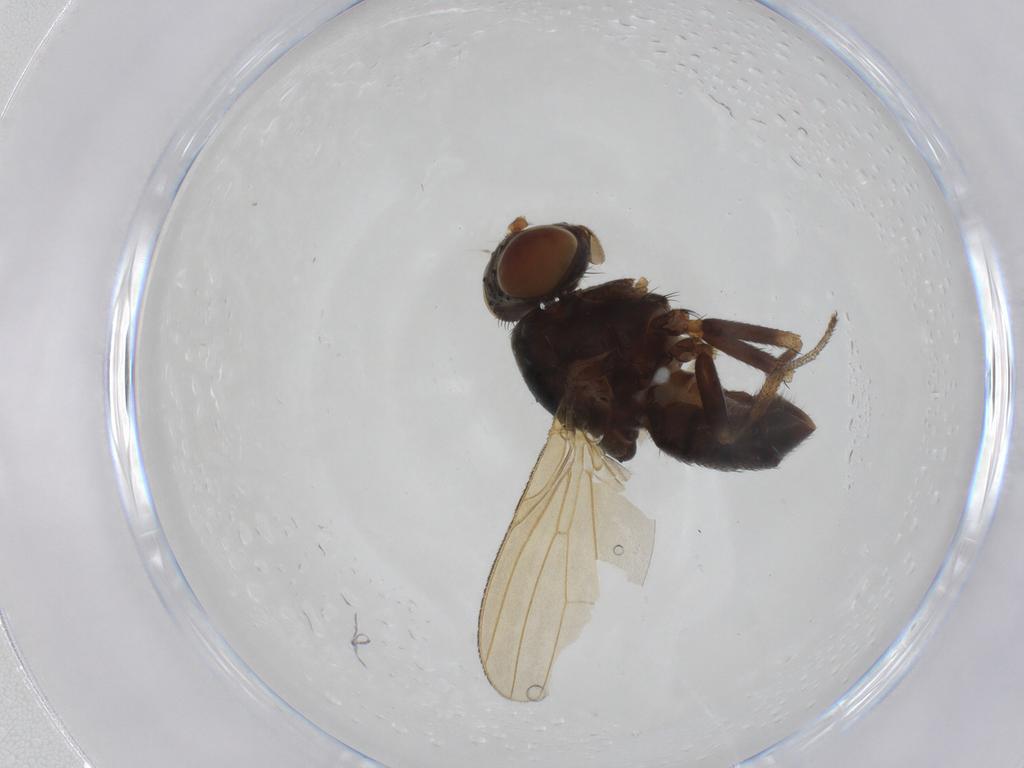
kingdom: Animalia
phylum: Arthropoda
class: Insecta
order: Diptera
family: Lauxaniidae
